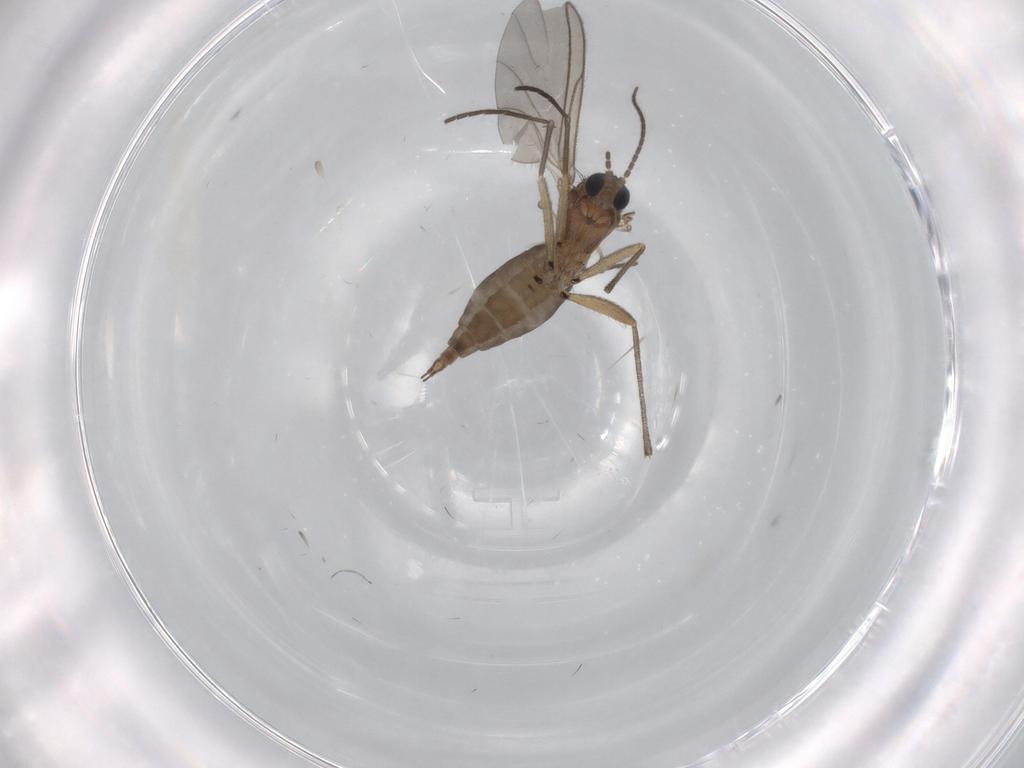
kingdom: Animalia
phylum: Arthropoda
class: Insecta
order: Diptera
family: Sciaridae
